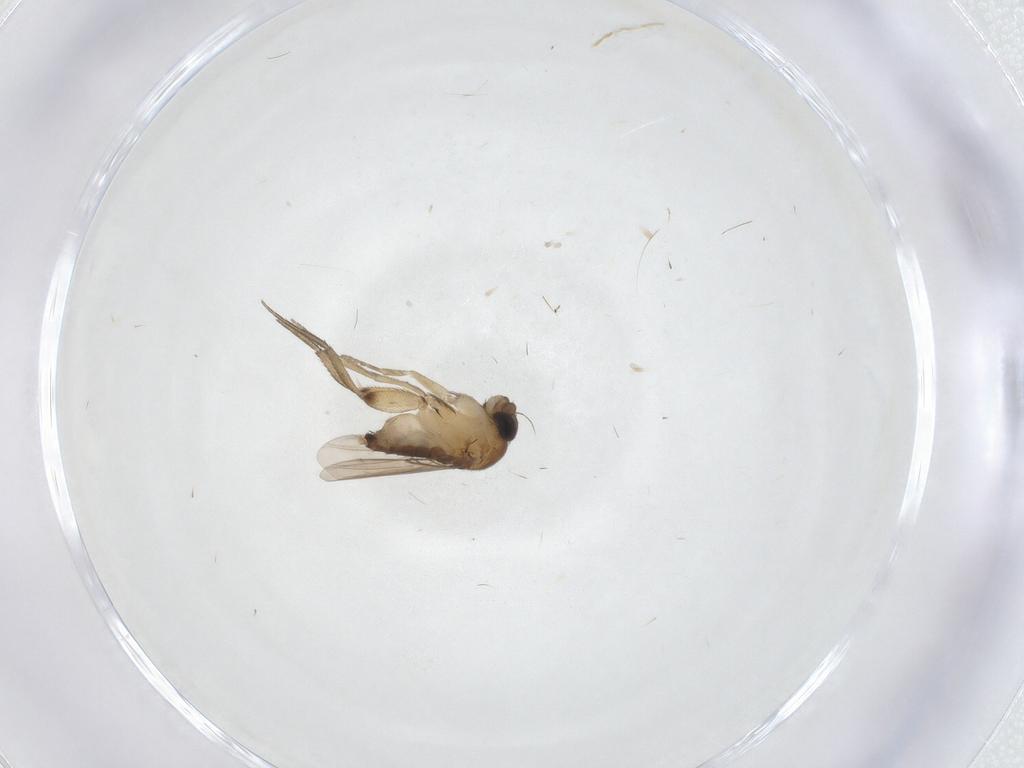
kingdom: Animalia
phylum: Arthropoda
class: Insecta
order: Diptera
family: Phoridae
